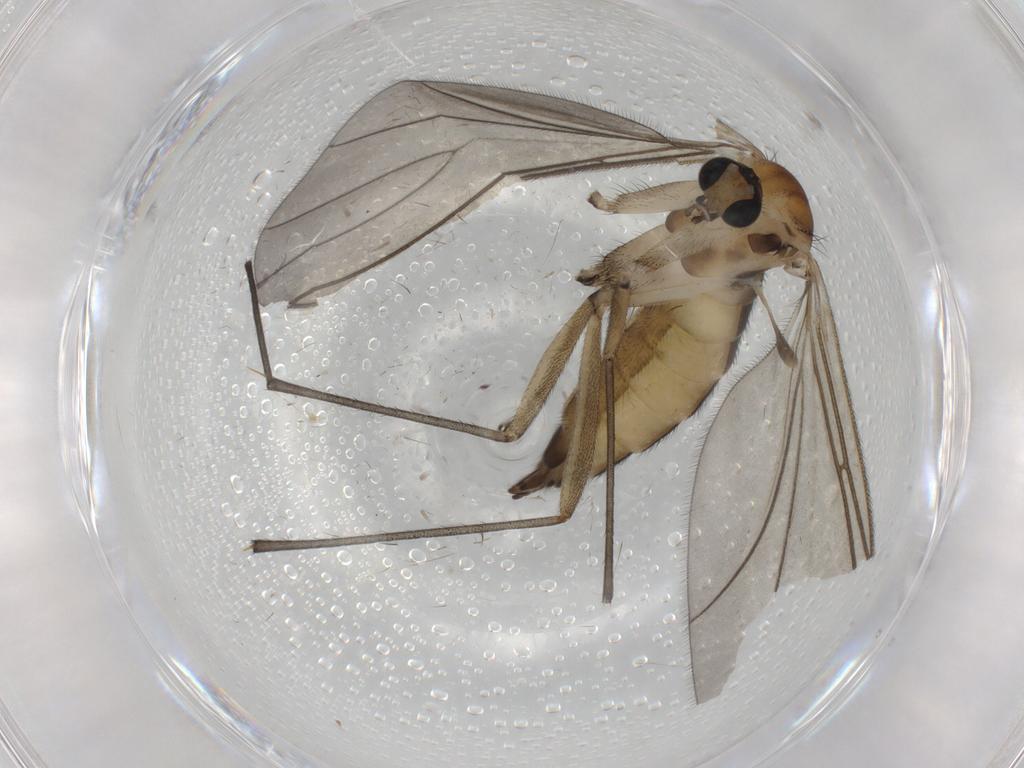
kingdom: Animalia
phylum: Arthropoda
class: Insecta
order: Diptera
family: Sciaridae
